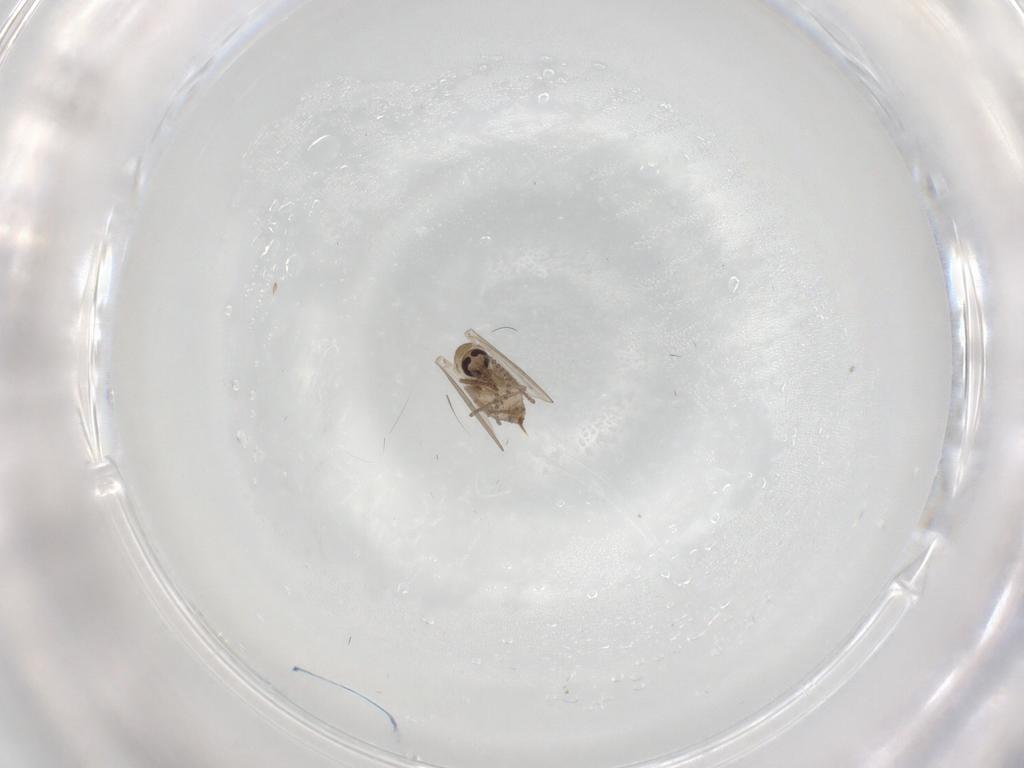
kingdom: Animalia
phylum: Arthropoda
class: Insecta
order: Diptera
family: Psychodidae
